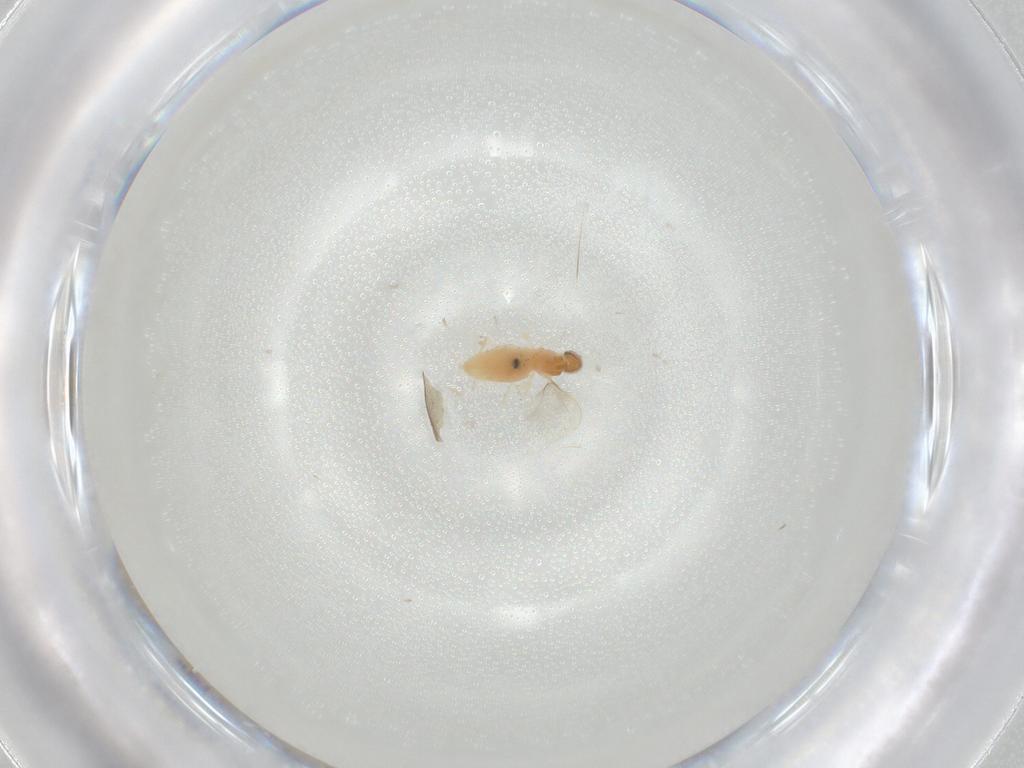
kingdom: Animalia
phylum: Arthropoda
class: Insecta
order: Diptera
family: Cecidomyiidae
